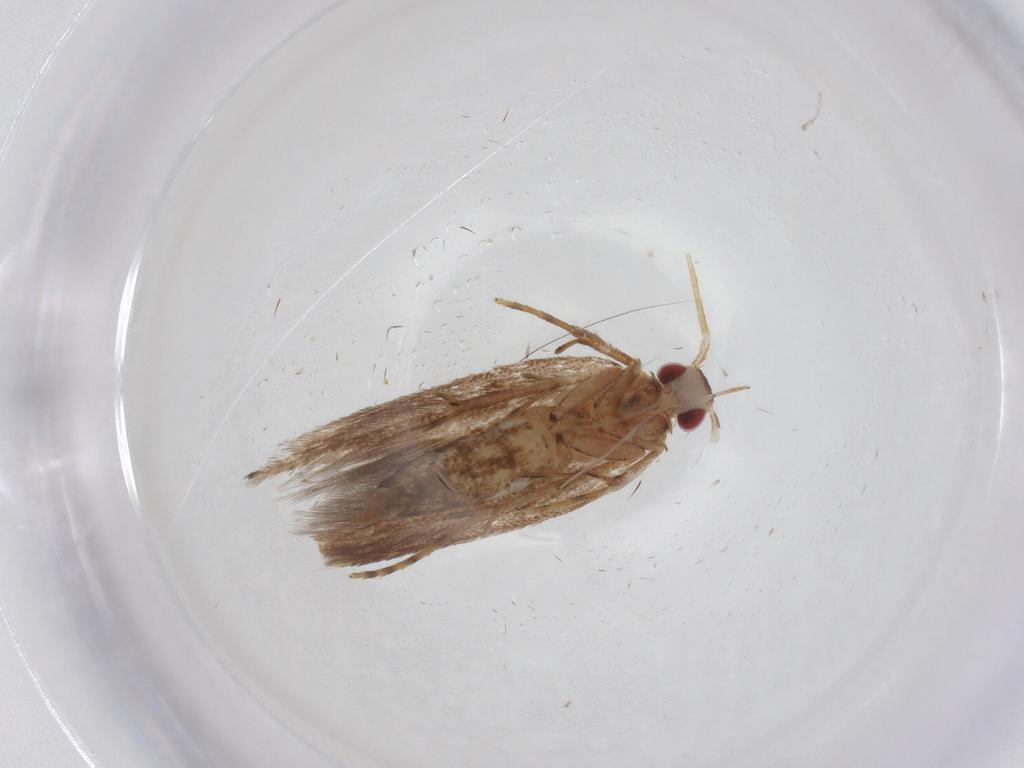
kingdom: Animalia
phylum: Arthropoda
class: Insecta
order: Lepidoptera
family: Cosmopterigidae
